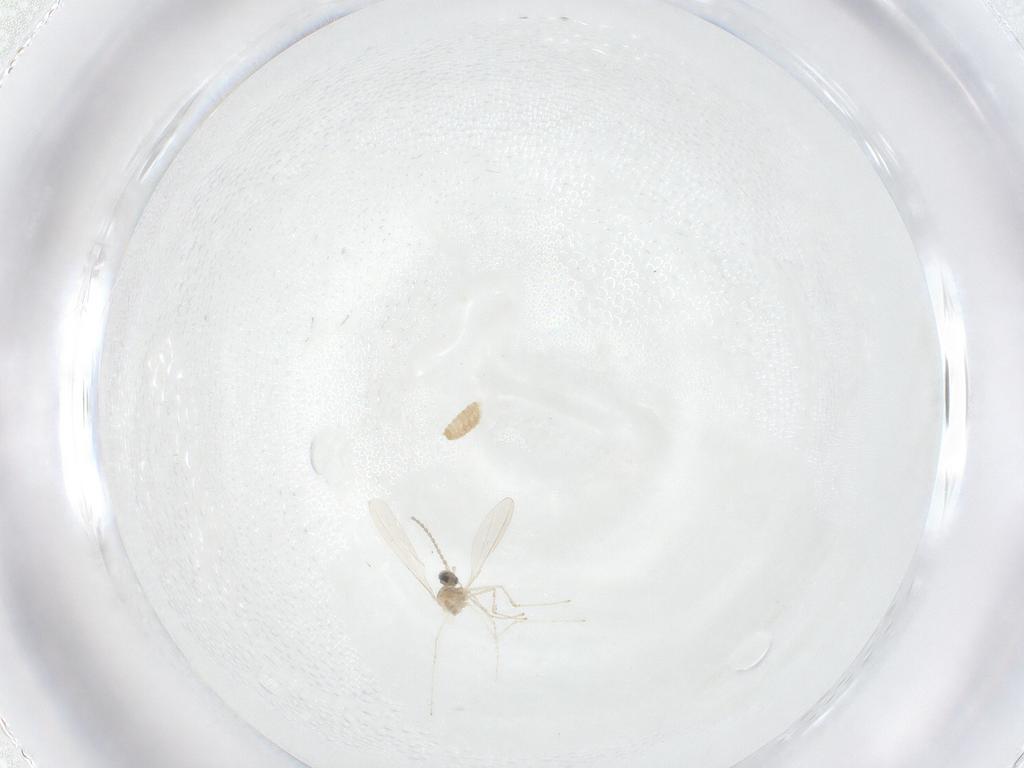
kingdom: Animalia
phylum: Arthropoda
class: Insecta
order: Diptera
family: Cecidomyiidae
